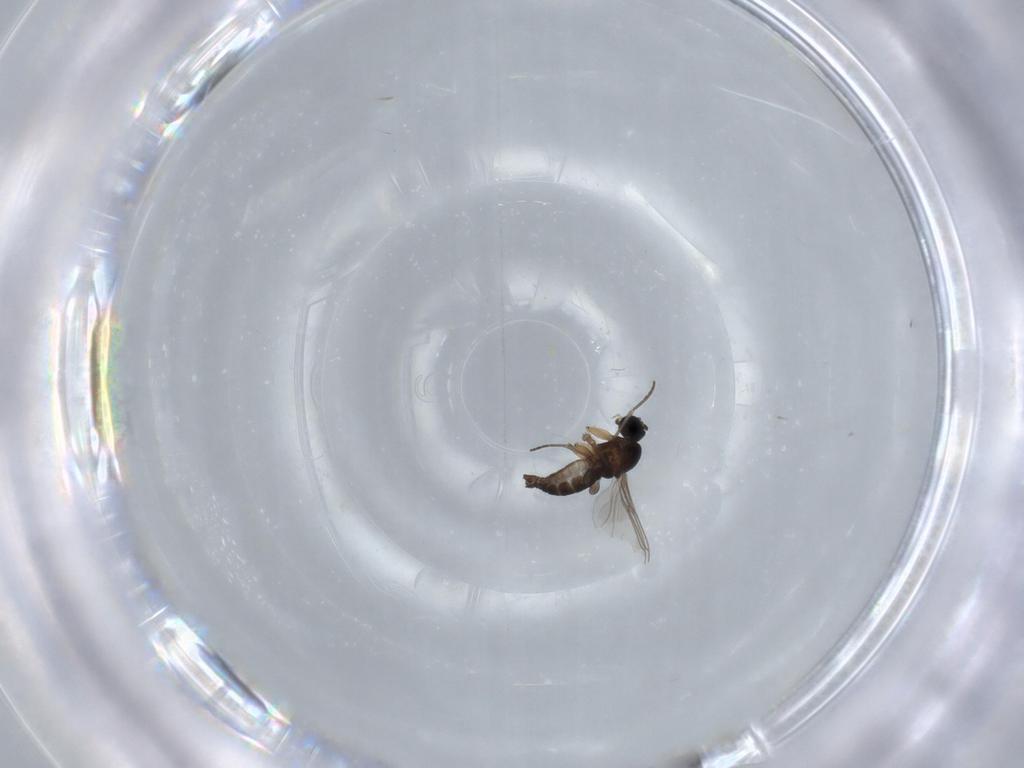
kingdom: Animalia
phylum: Arthropoda
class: Insecta
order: Diptera
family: Sciaridae
